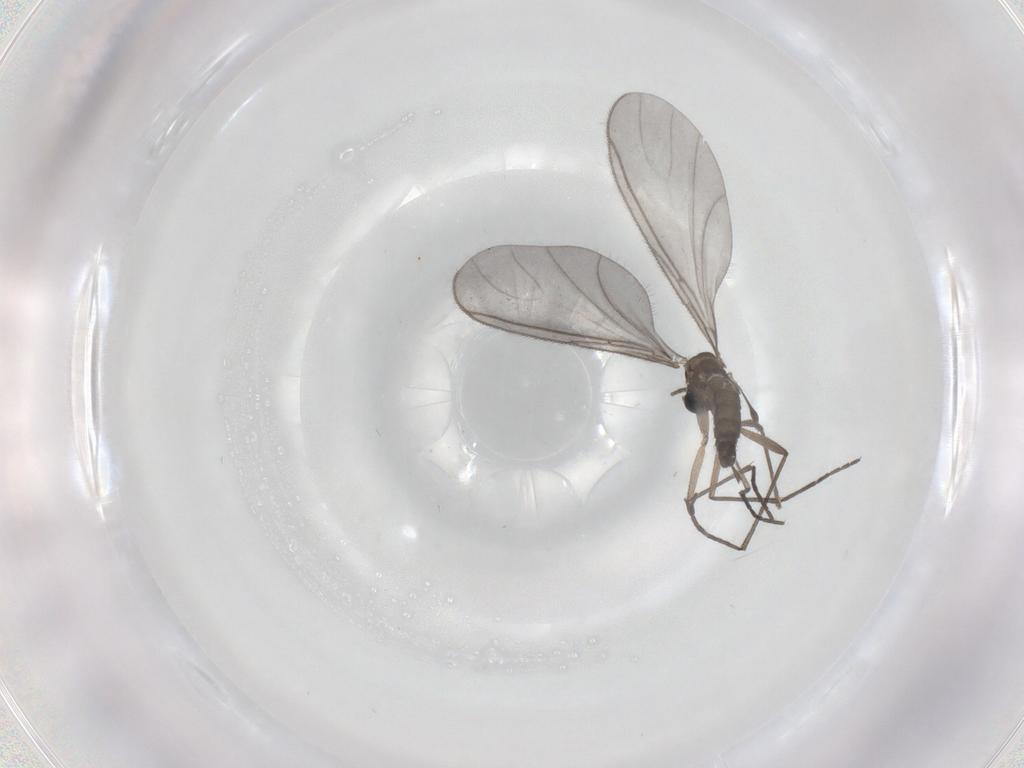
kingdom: Animalia
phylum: Arthropoda
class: Insecta
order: Diptera
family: Sciaridae
